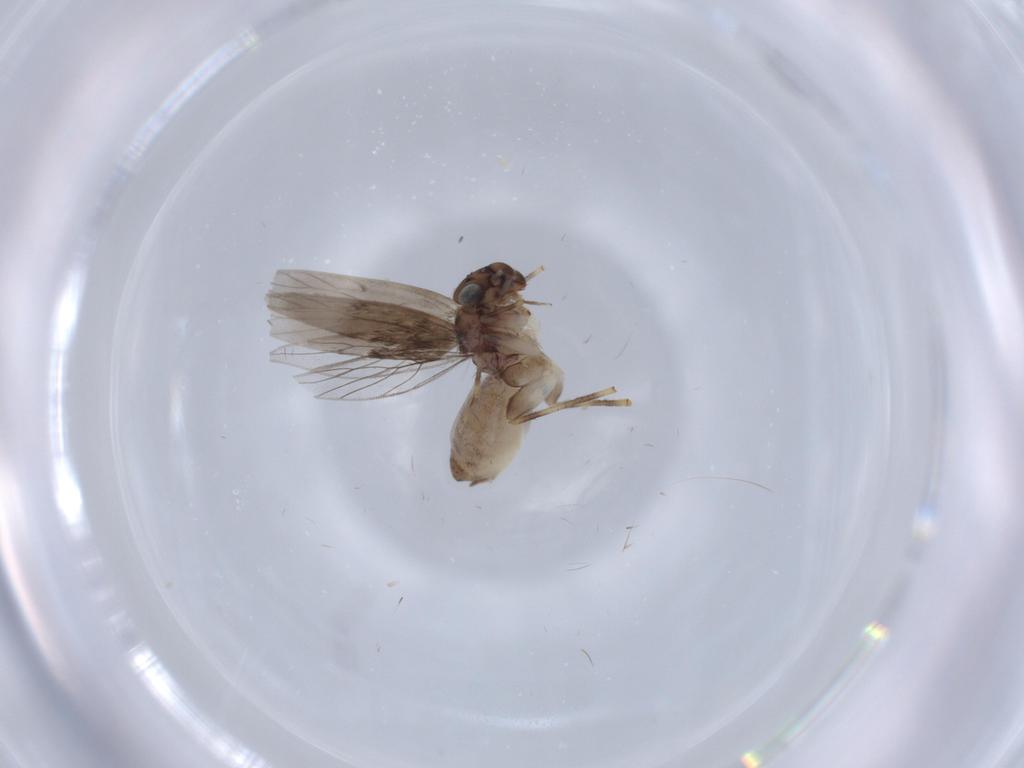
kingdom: Animalia
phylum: Arthropoda
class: Insecta
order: Psocodea
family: Lepidopsocidae
